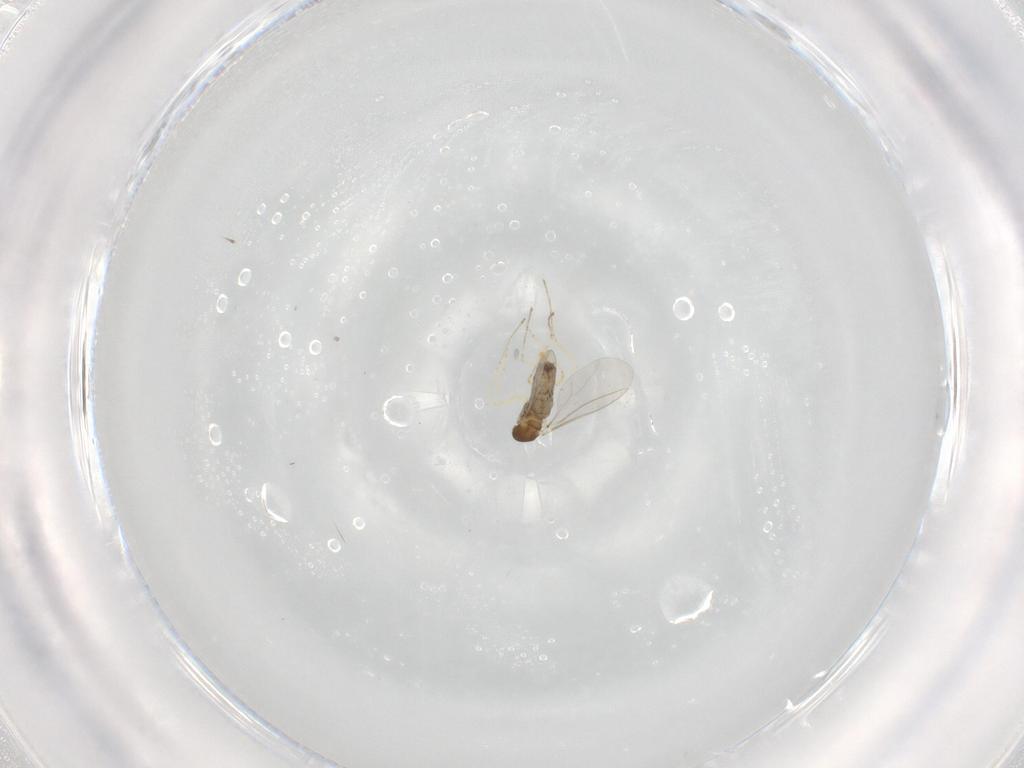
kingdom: Animalia
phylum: Arthropoda
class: Insecta
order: Diptera
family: Cecidomyiidae
